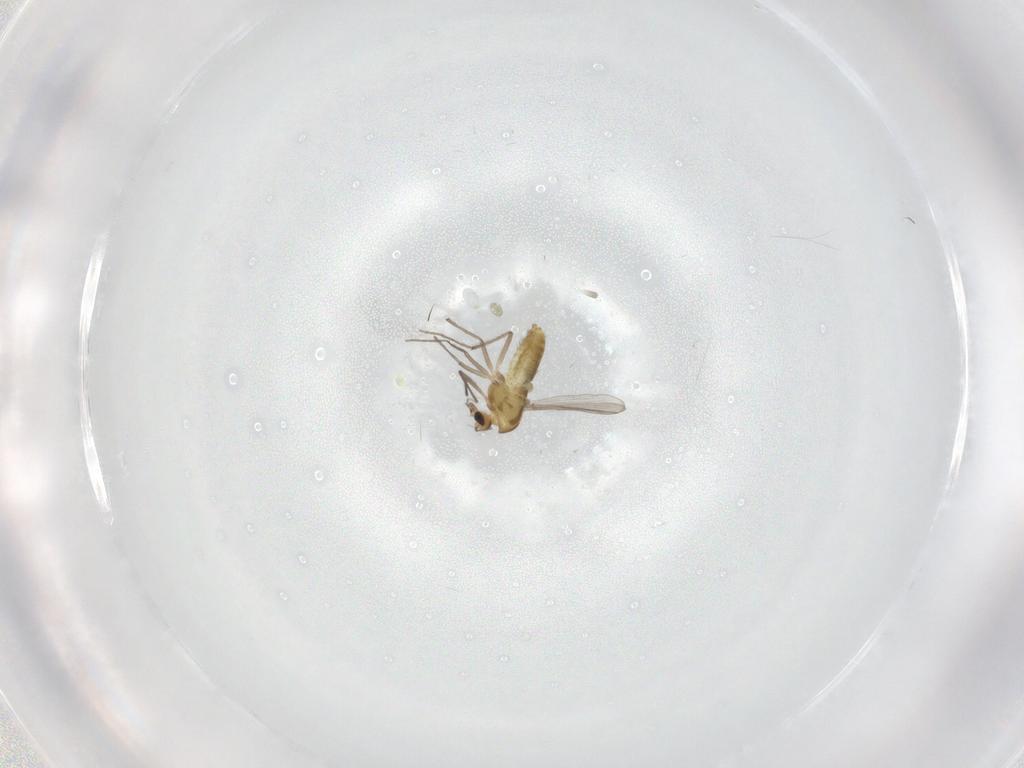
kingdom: Animalia
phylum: Arthropoda
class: Insecta
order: Diptera
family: Chironomidae
